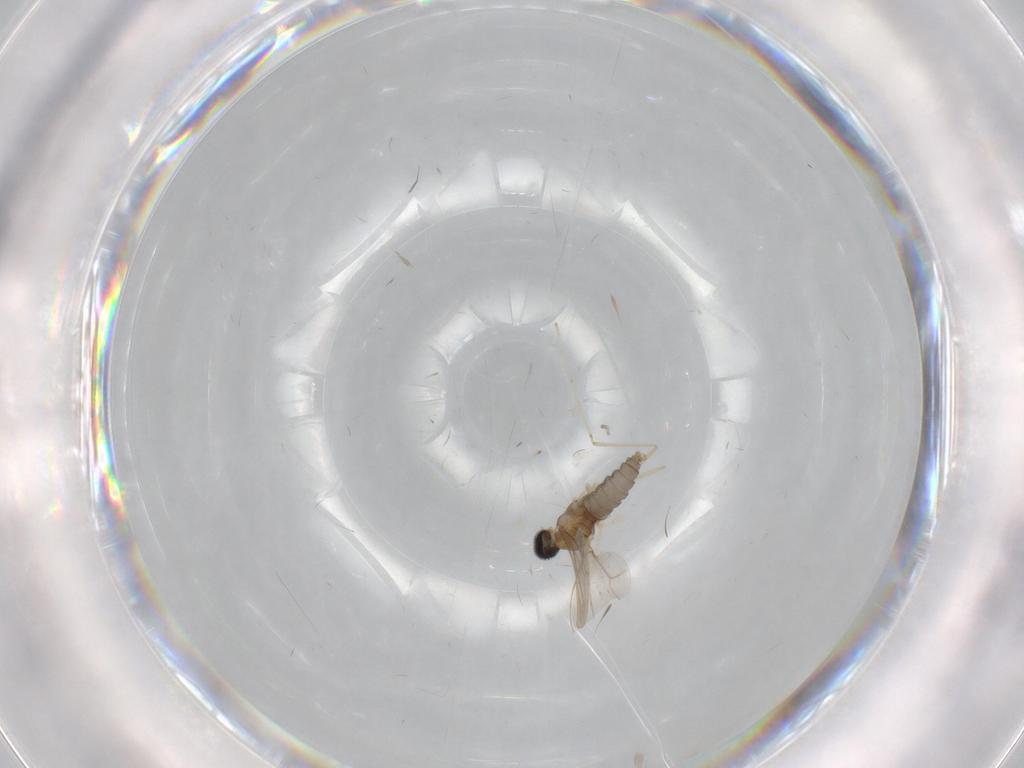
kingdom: Animalia
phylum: Arthropoda
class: Insecta
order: Diptera
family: Cecidomyiidae
